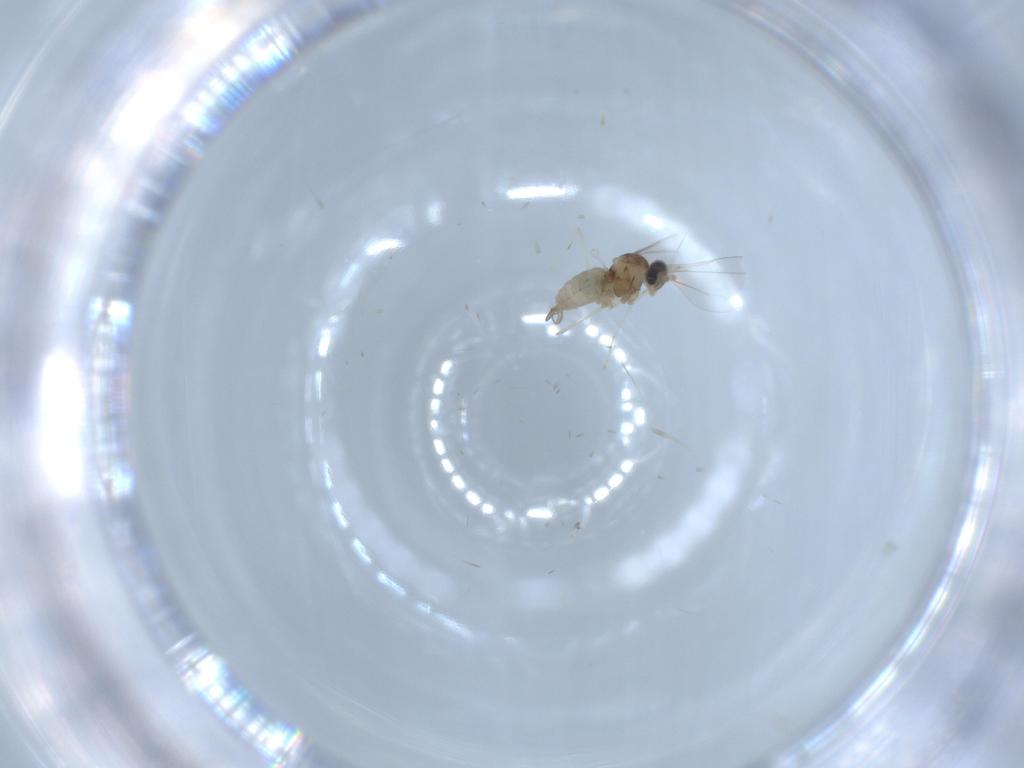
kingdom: Animalia
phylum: Arthropoda
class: Insecta
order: Diptera
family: Cecidomyiidae
